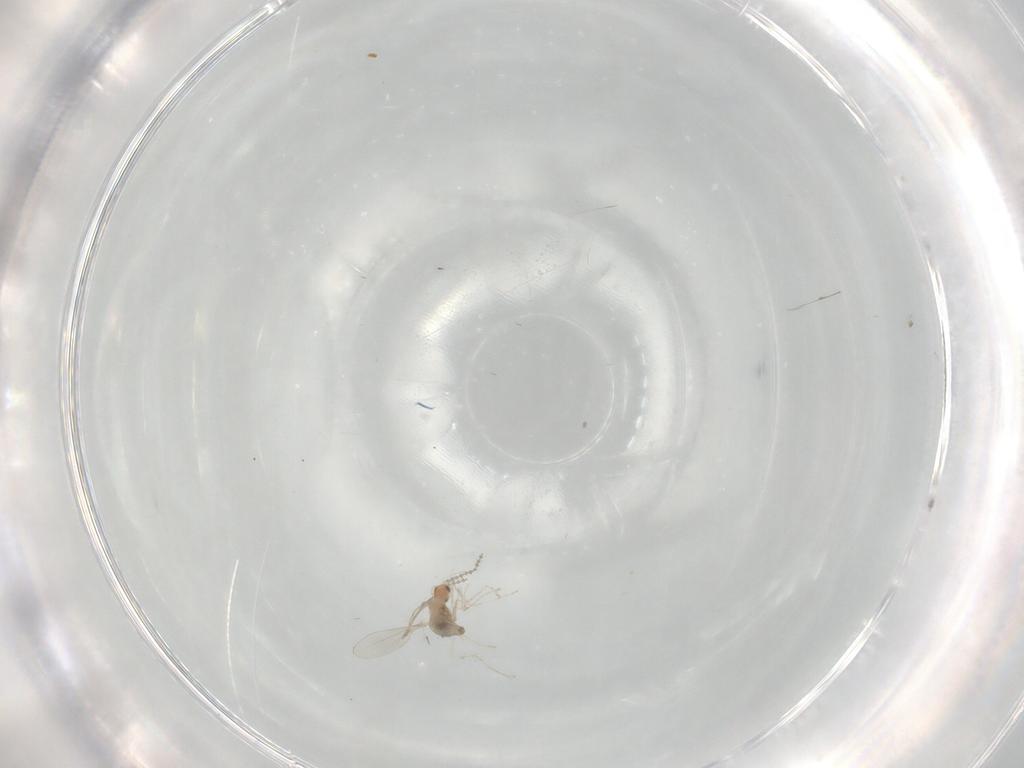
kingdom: Animalia
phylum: Arthropoda
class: Insecta
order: Diptera
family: Cecidomyiidae
